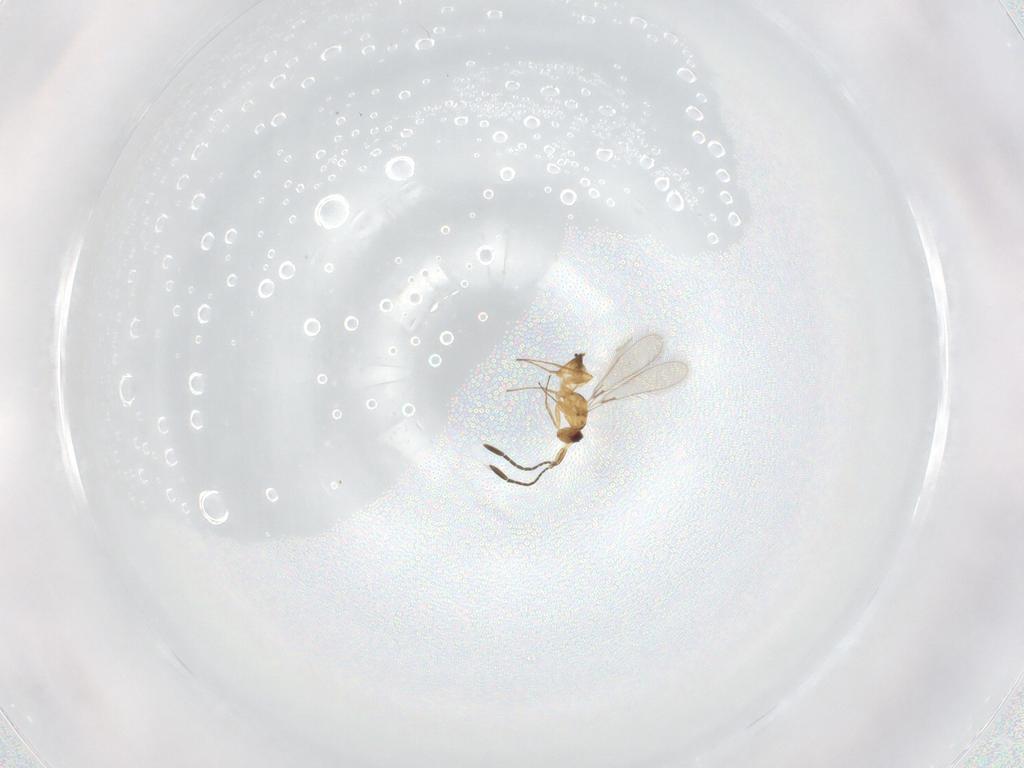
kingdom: Animalia
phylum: Arthropoda
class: Insecta
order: Hymenoptera
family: Mymaridae
